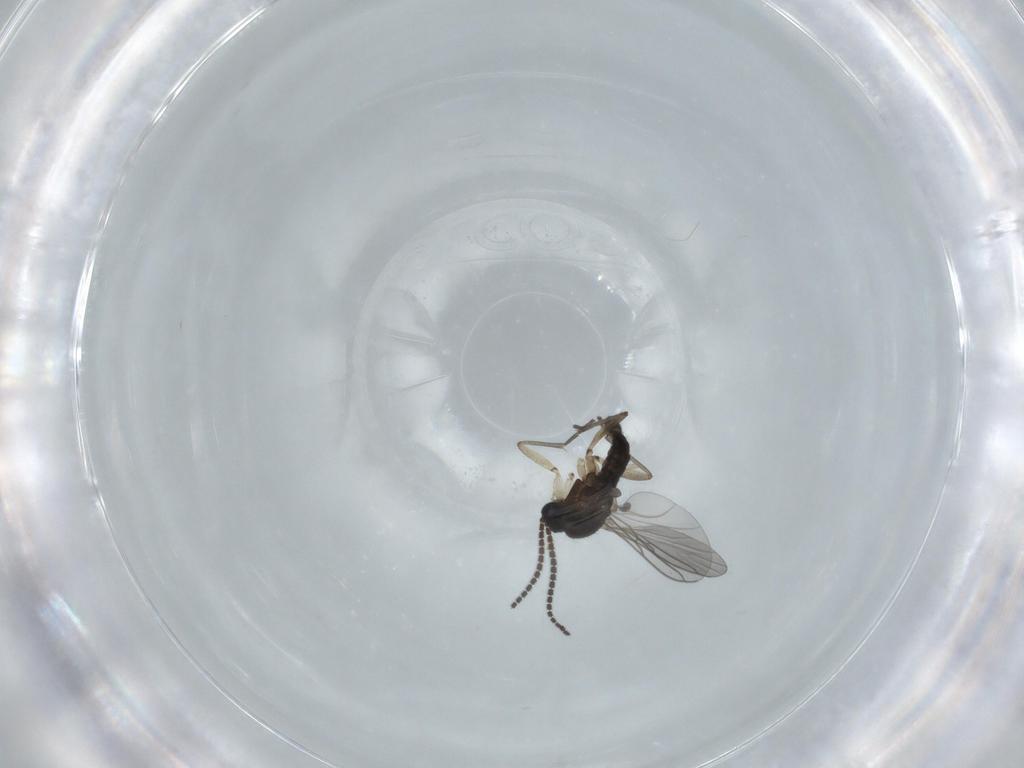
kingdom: Animalia
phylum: Arthropoda
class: Insecta
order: Diptera
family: Sciaridae
